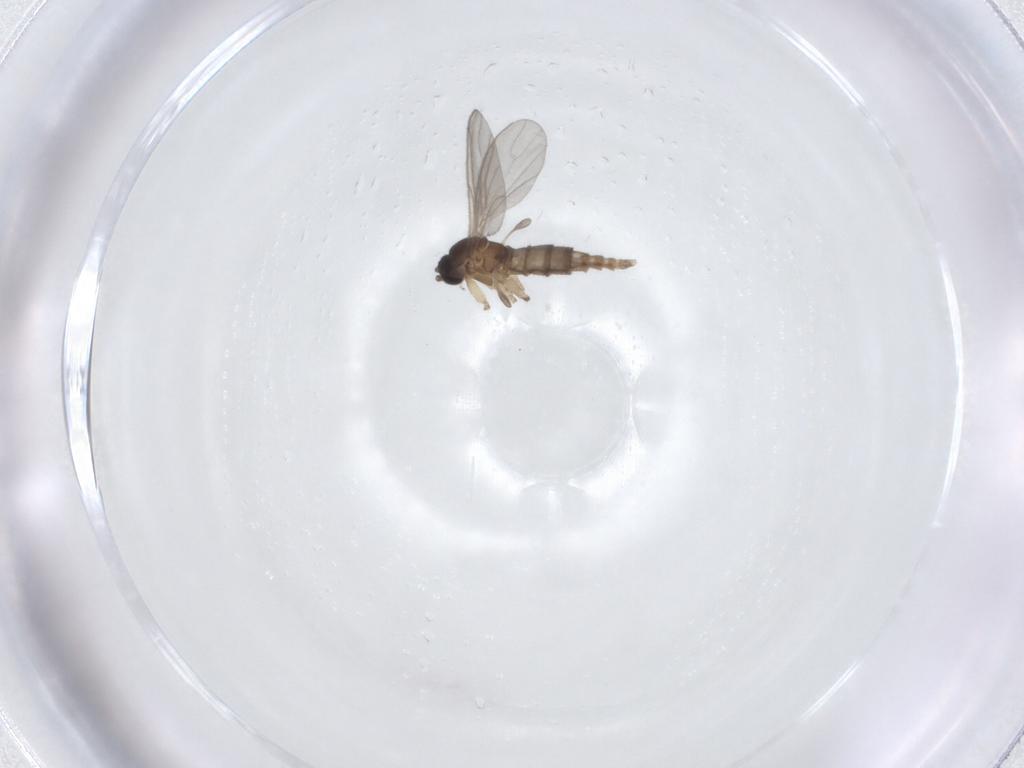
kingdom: Animalia
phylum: Arthropoda
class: Insecta
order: Diptera
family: Sciaridae
